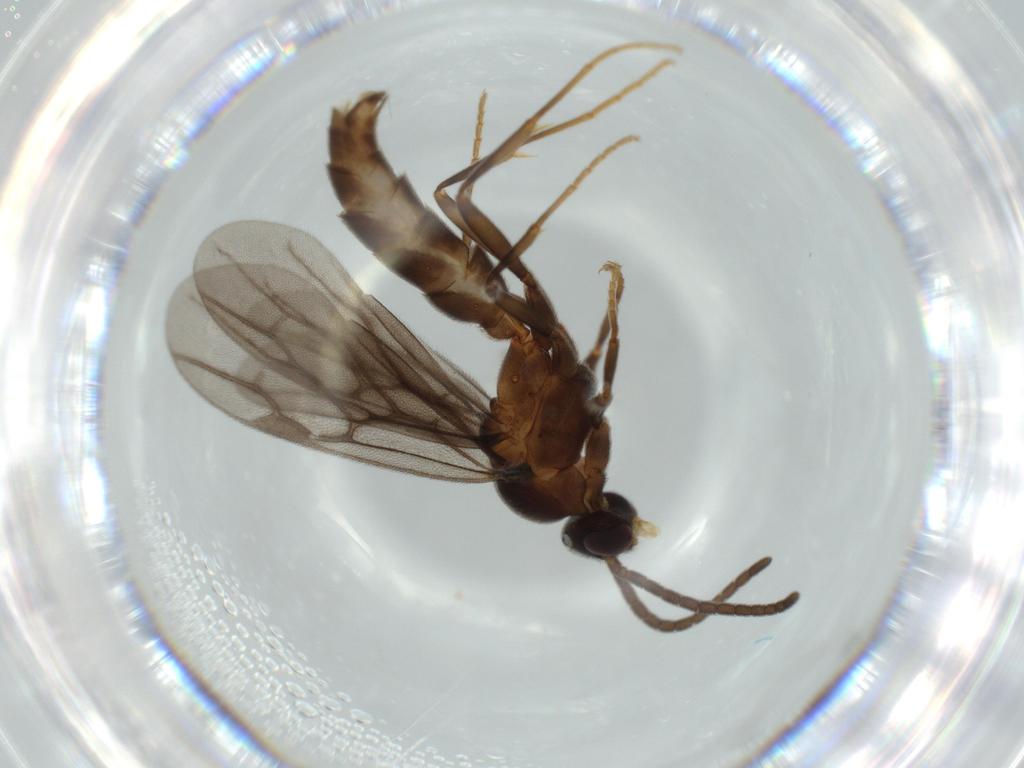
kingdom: Animalia
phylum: Arthropoda
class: Insecta
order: Hymenoptera
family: Formicidae
